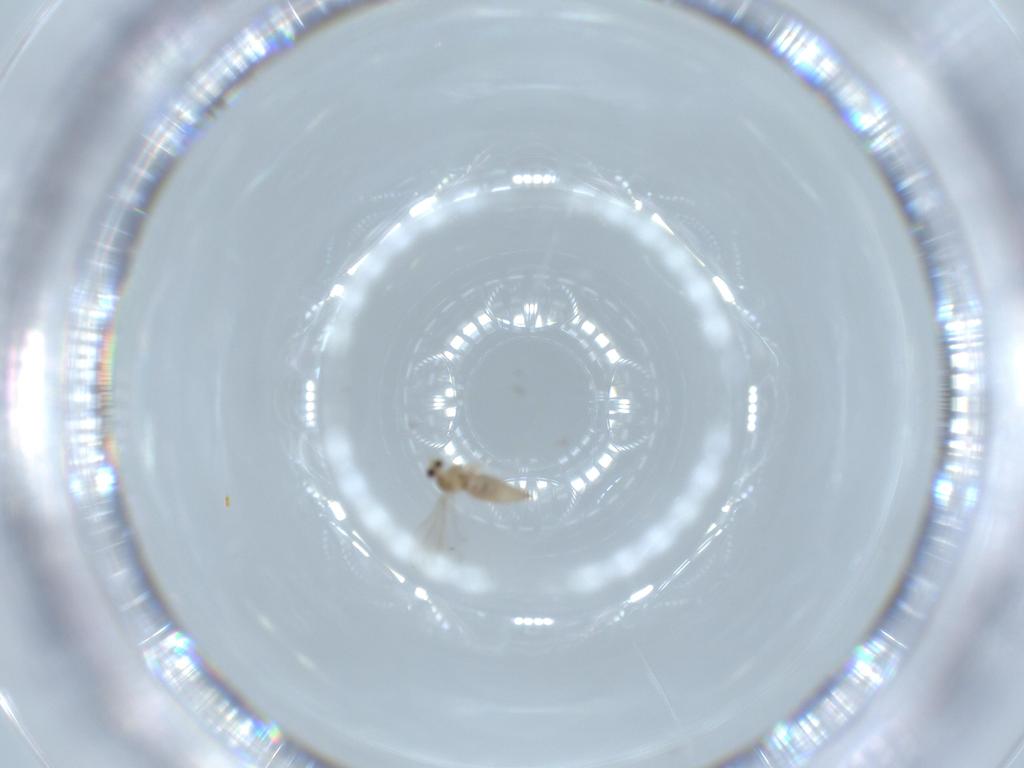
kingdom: Animalia
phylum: Arthropoda
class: Insecta
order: Diptera
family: Cecidomyiidae
